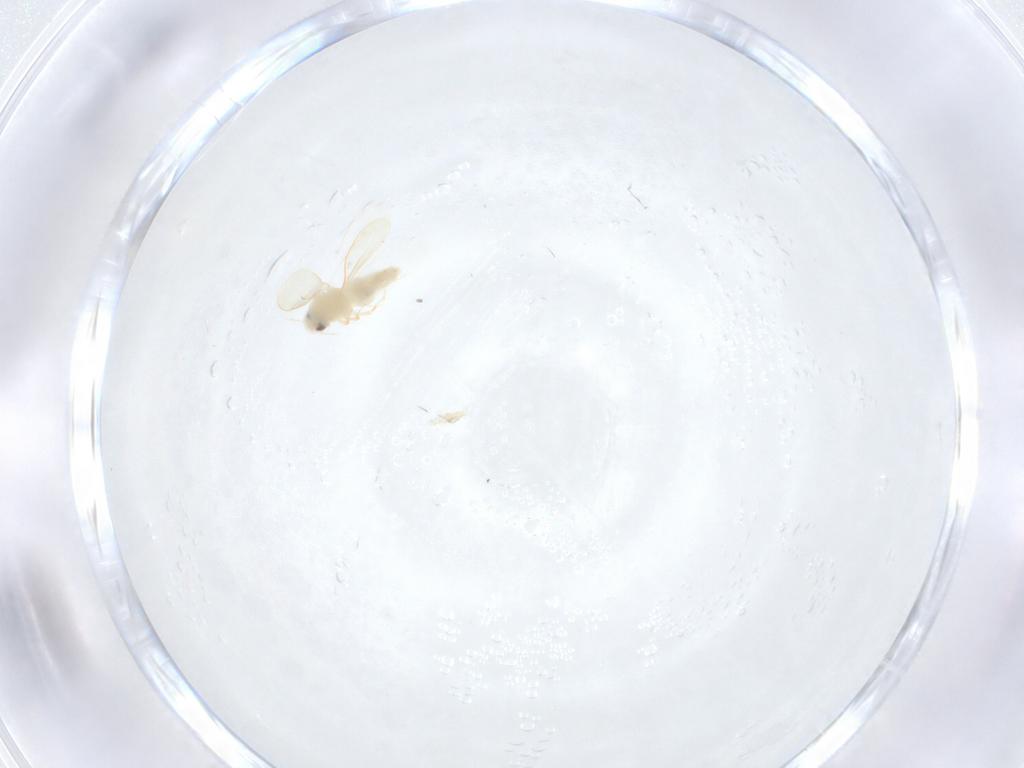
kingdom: Animalia
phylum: Arthropoda
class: Insecta
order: Hemiptera
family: Aleyrodidae
